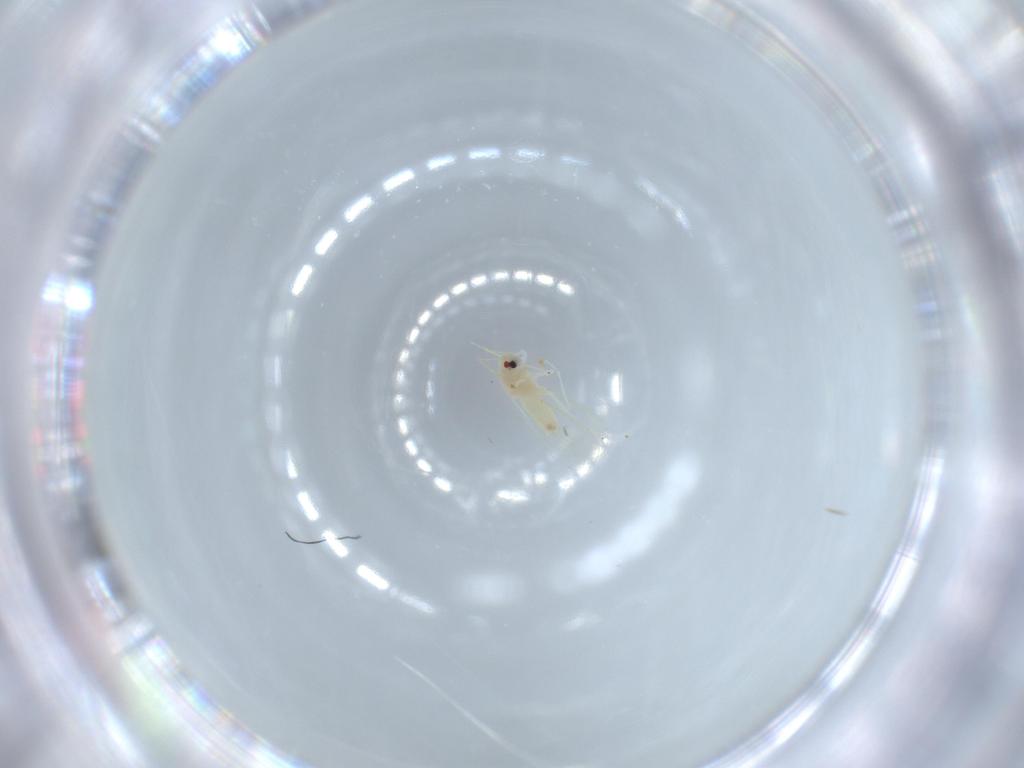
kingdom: Animalia
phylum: Arthropoda
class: Insecta
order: Hemiptera
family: Aleyrodidae
